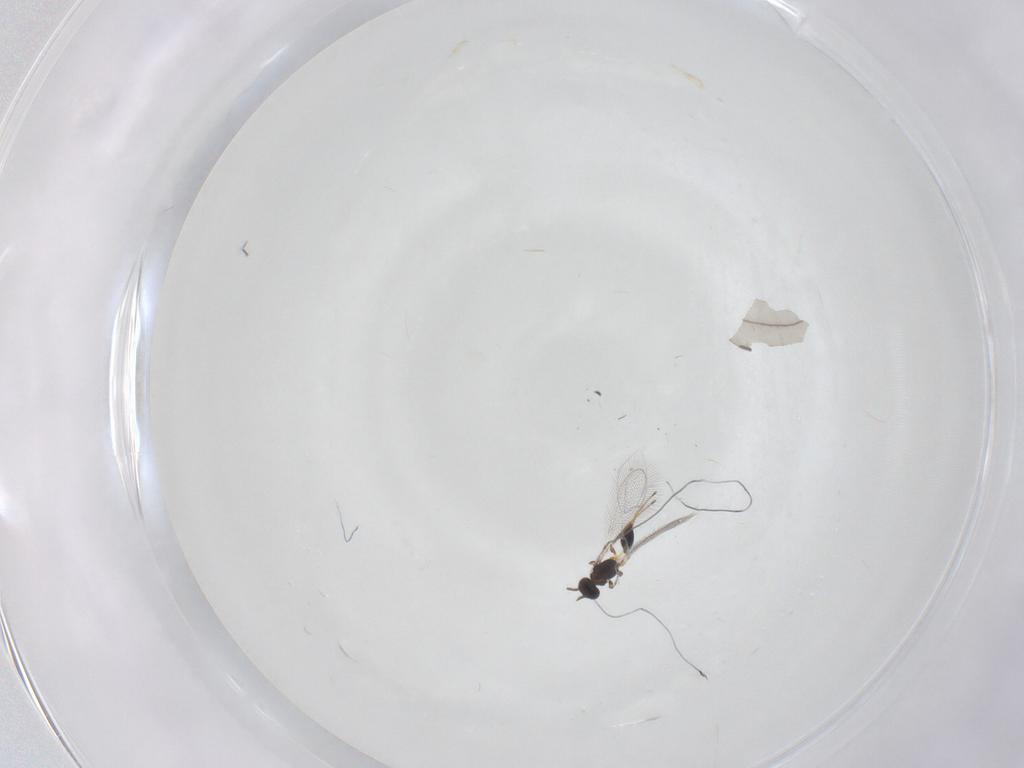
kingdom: Animalia
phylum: Arthropoda
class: Insecta
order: Hymenoptera
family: Mymaridae
